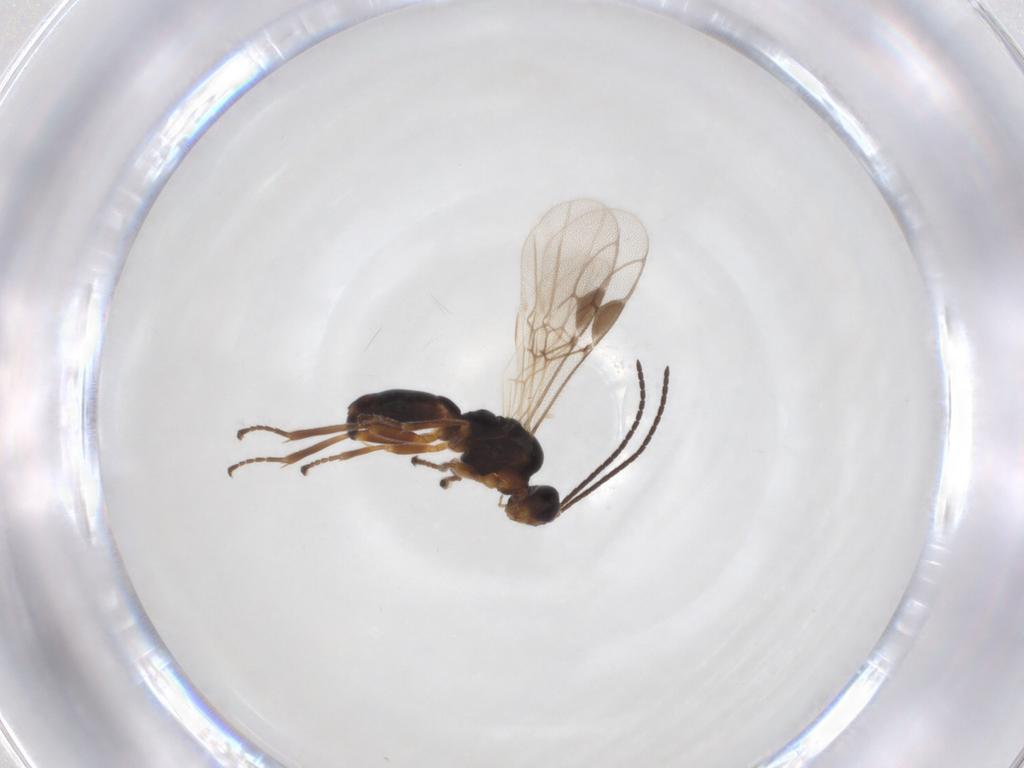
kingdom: Animalia
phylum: Arthropoda
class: Insecta
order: Hymenoptera
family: Braconidae
